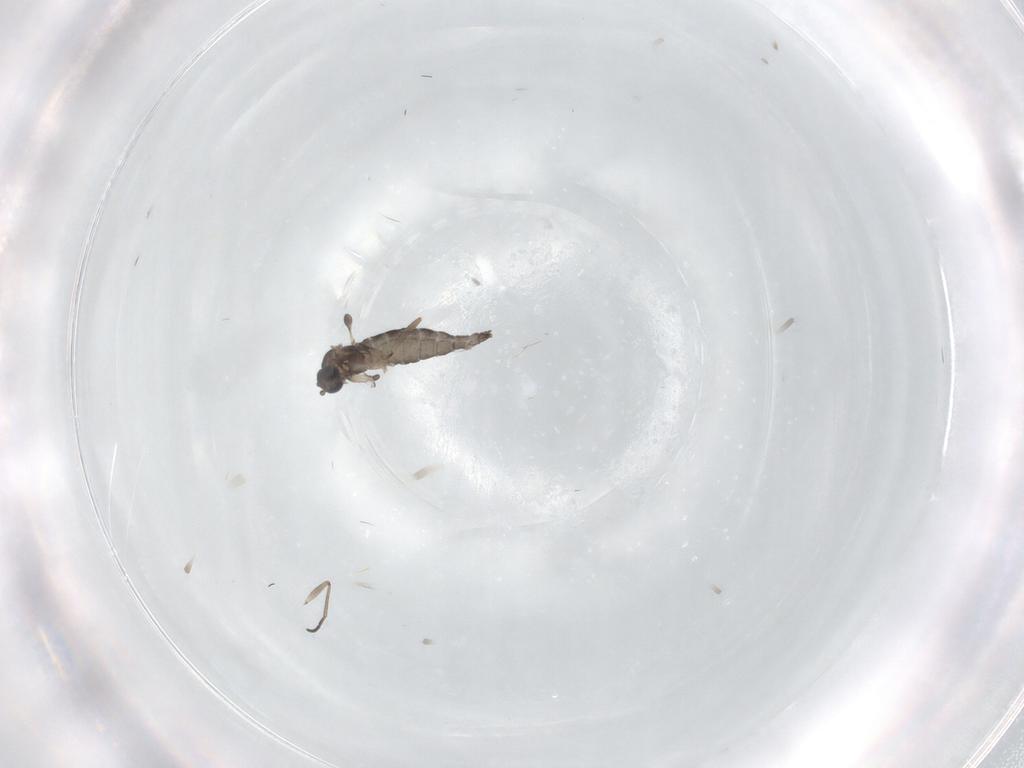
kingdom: Animalia
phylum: Arthropoda
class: Insecta
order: Diptera
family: Sciaridae
